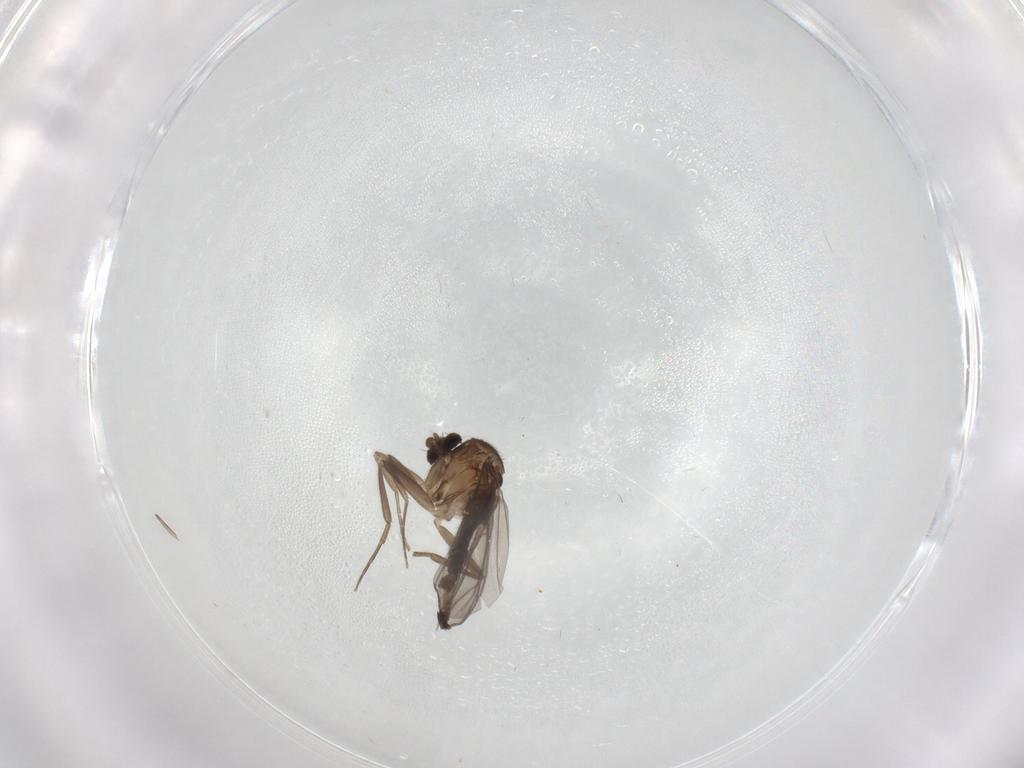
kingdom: Animalia
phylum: Arthropoda
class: Insecta
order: Diptera
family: Phoridae
